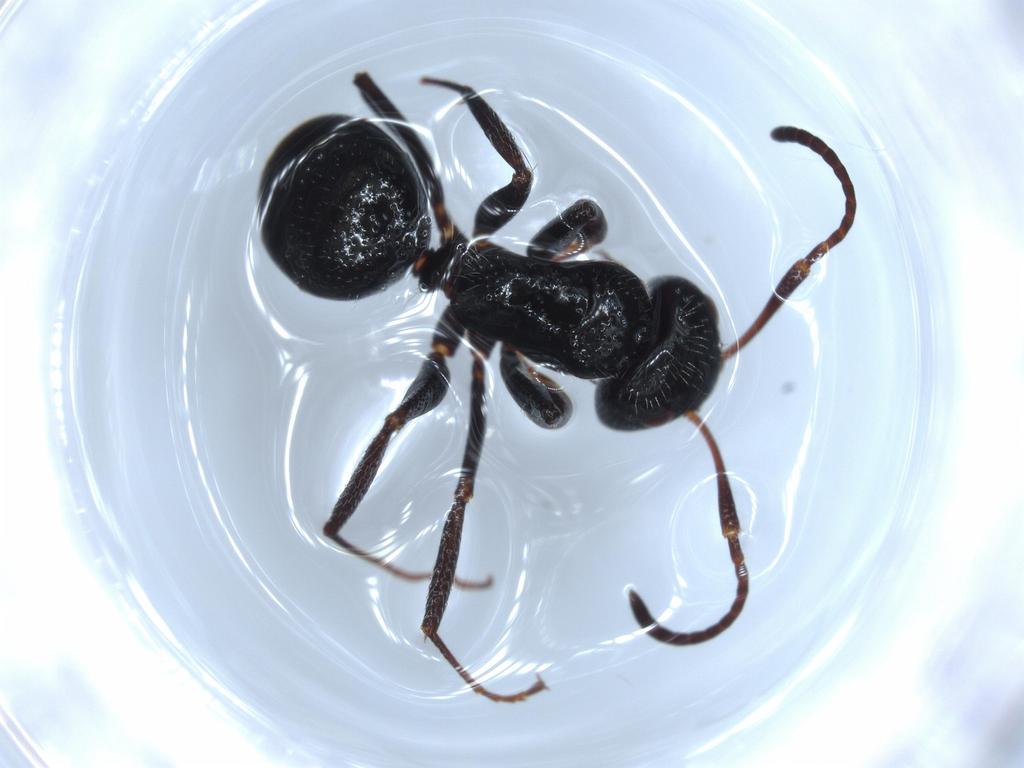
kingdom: Animalia
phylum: Arthropoda
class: Insecta
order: Hymenoptera
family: Formicidae
